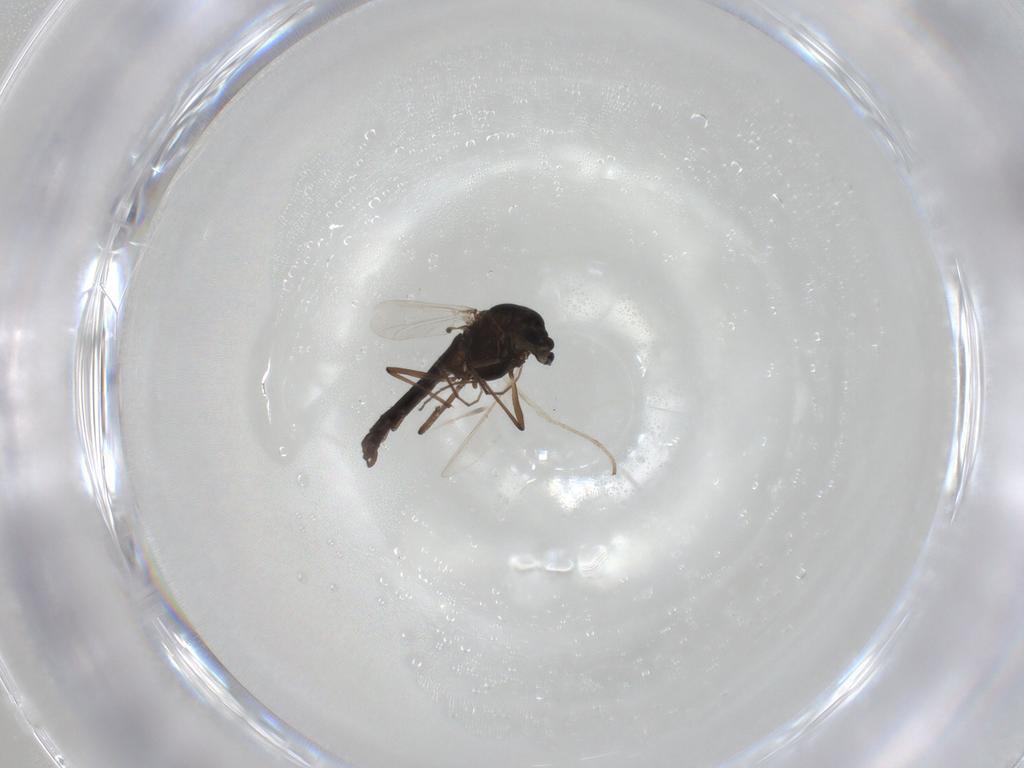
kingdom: Animalia
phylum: Arthropoda
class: Insecta
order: Diptera
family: Chironomidae
